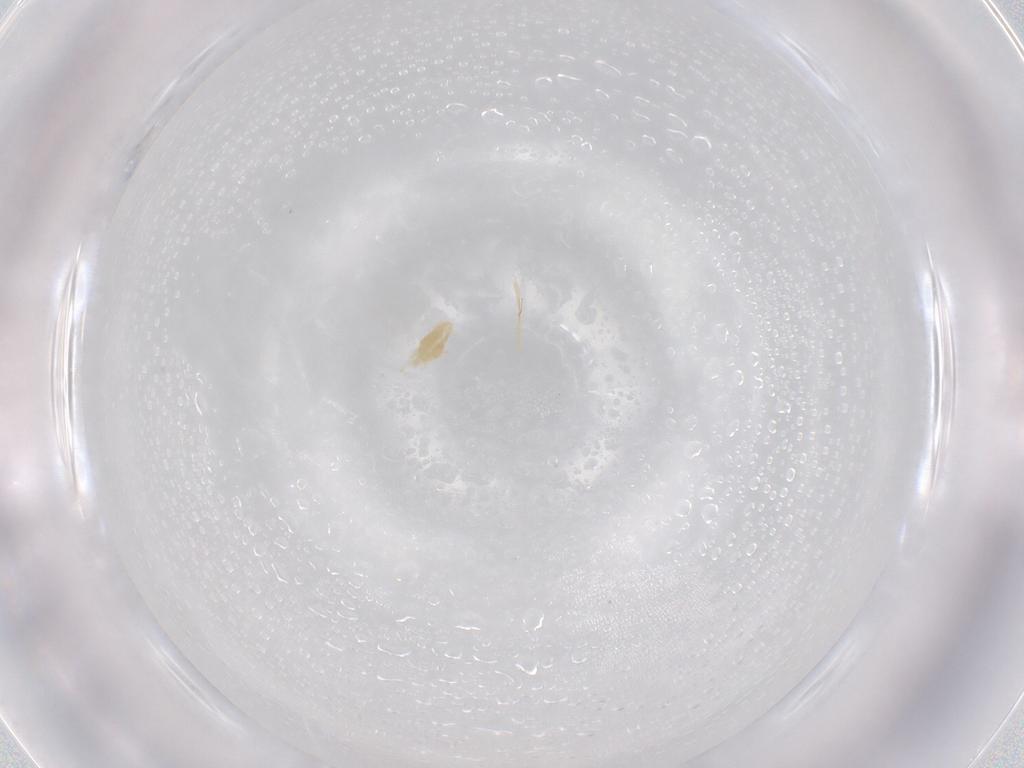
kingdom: Animalia
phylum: Arthropoda
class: Arachnida
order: Trombidiformes
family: Eupodidae
